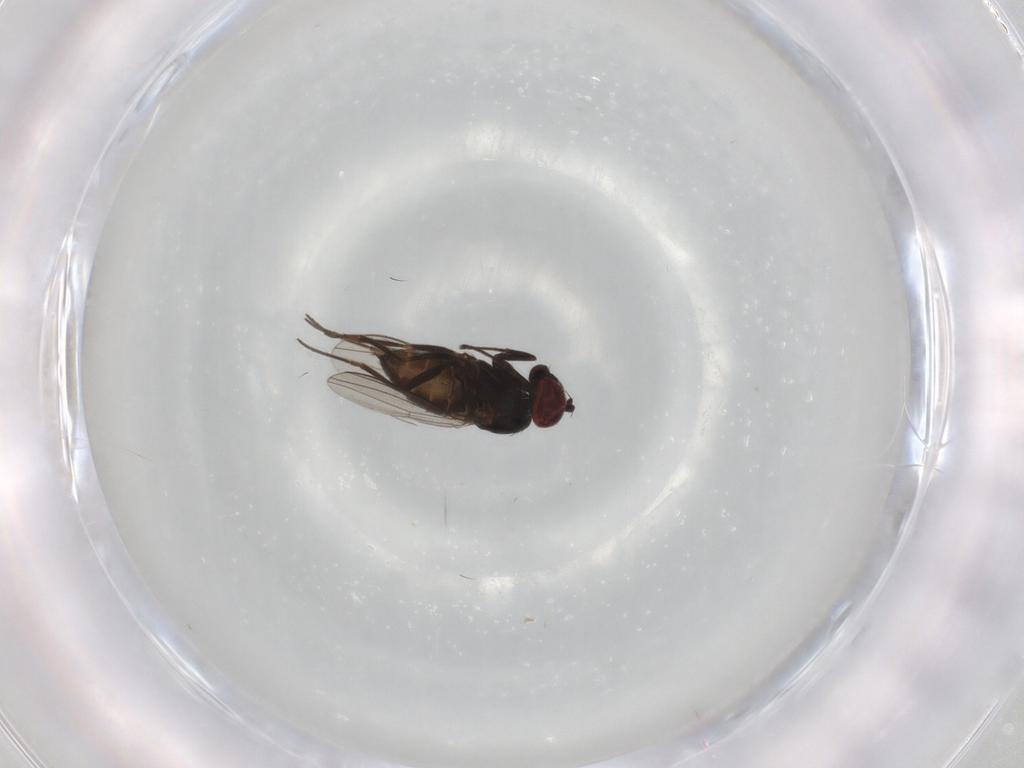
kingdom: Animalia
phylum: Arthropoda
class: Insecta
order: Diptera
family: Dolichopodidae
